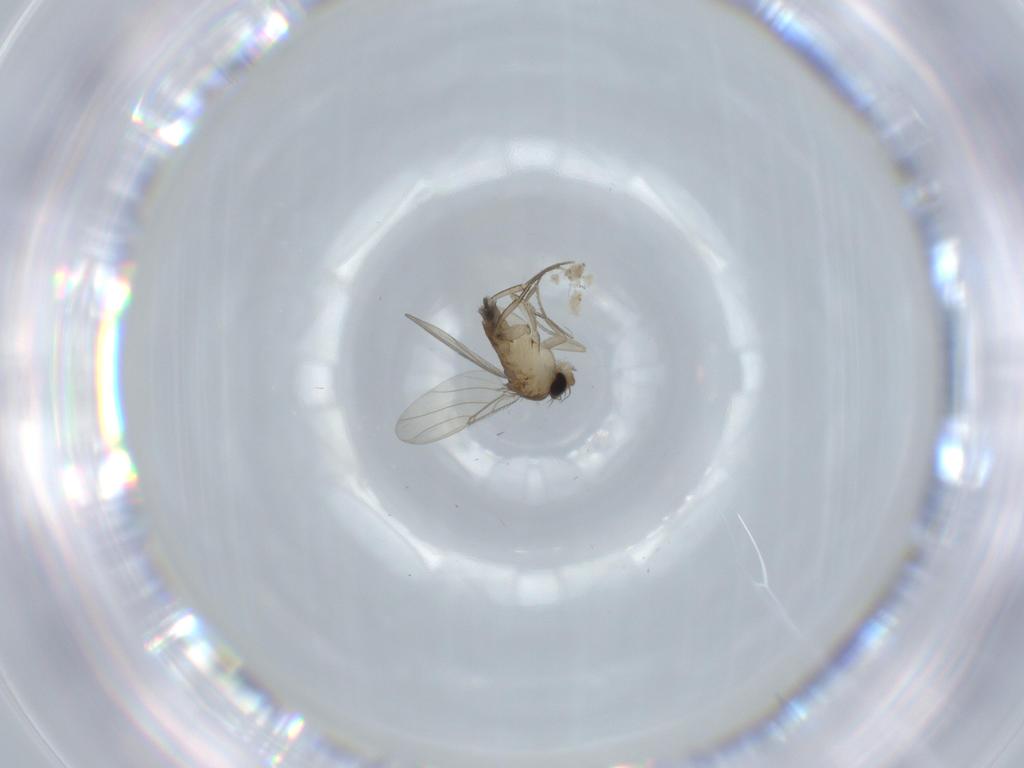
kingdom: Animalia
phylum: Arthropoda
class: Insecta
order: Diptera
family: Phoridae
